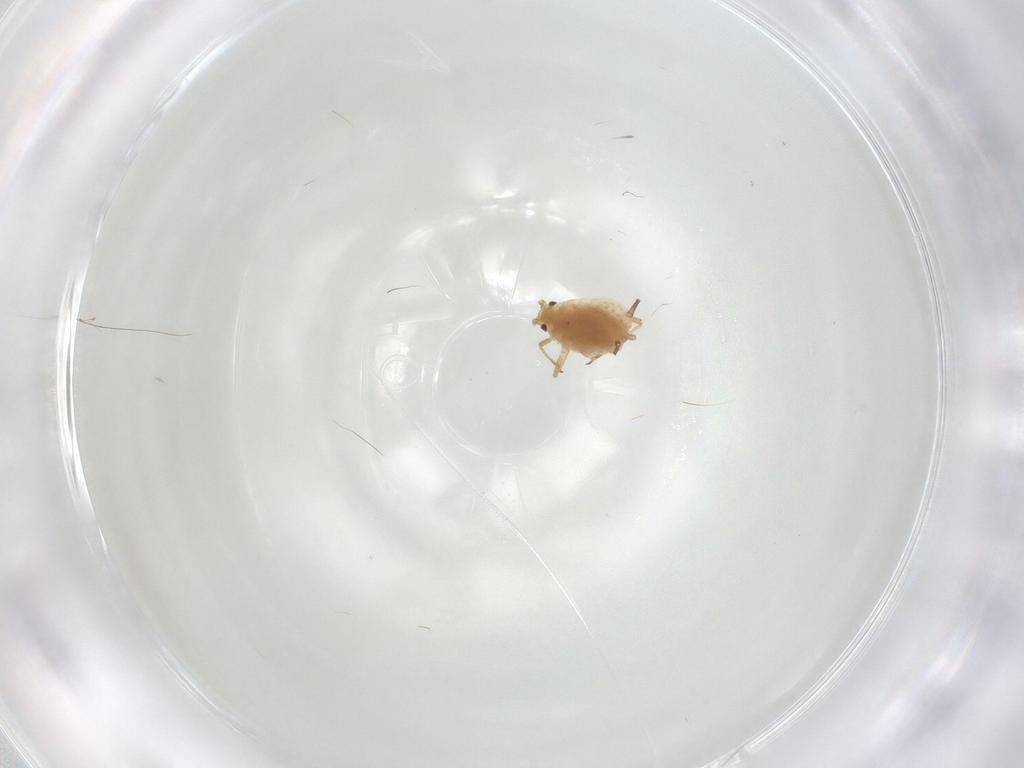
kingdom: Animalia
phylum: Arthropoda
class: Insecta
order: Hemiptera
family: Aphididae
